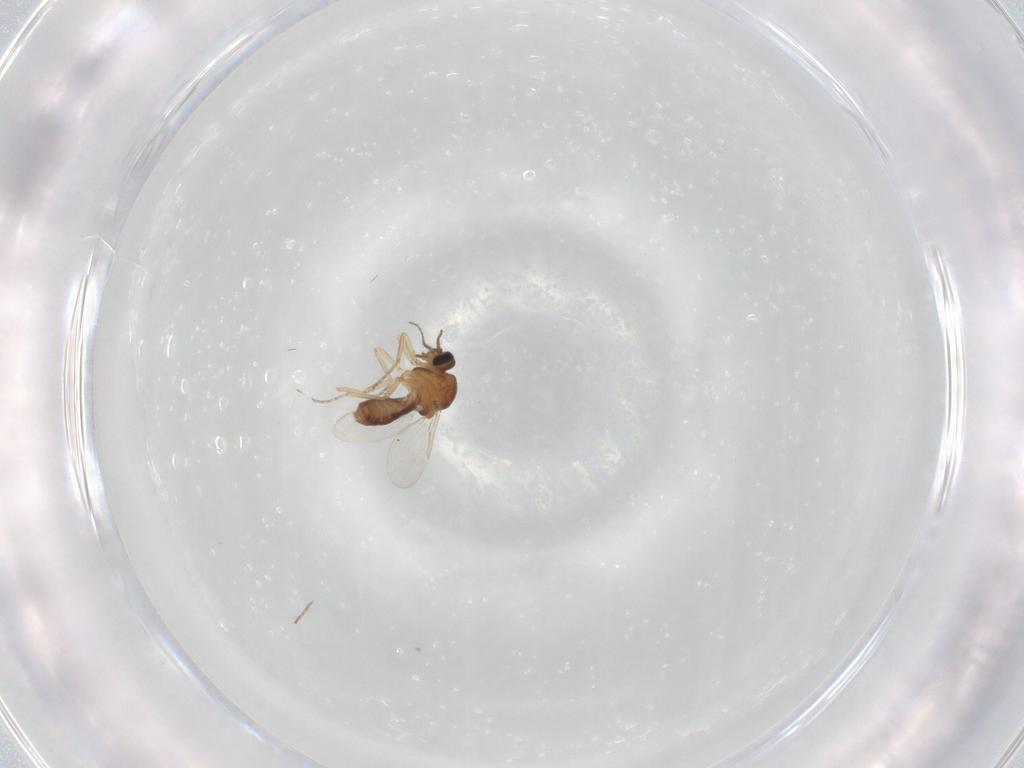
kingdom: Animalia
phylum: Arthropoda
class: Insecta
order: Diptera
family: Ceratopogonidae
